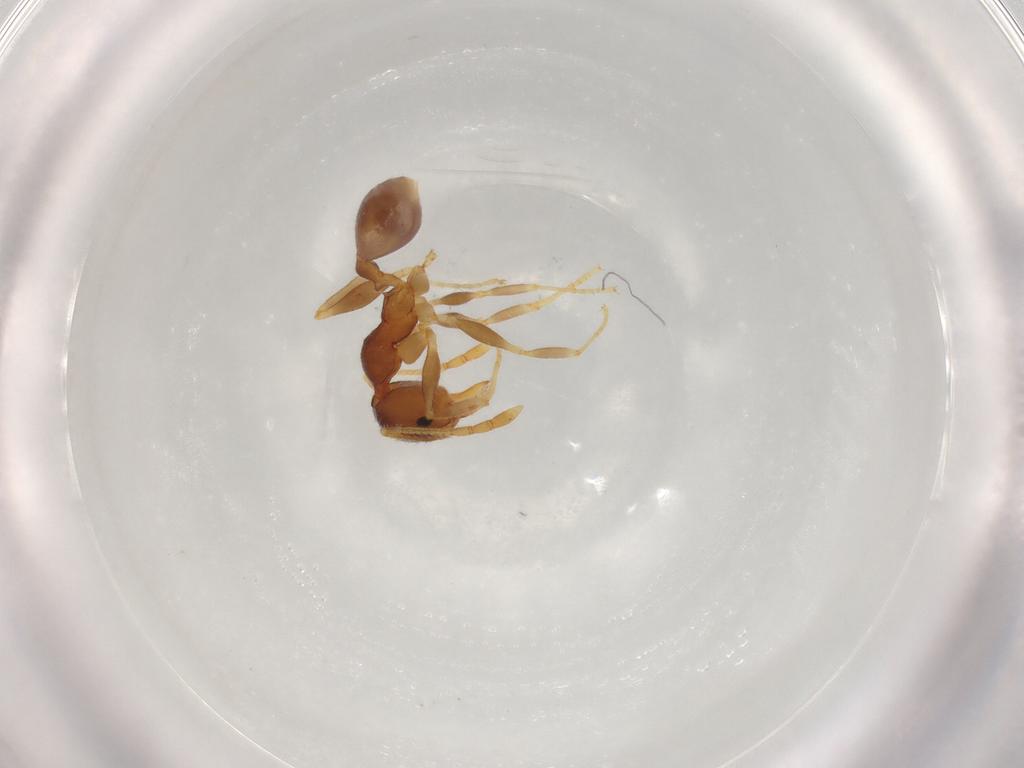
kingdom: Animalia
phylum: Arthropoda
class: Insecta
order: Hymenoptera
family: Formicidae
